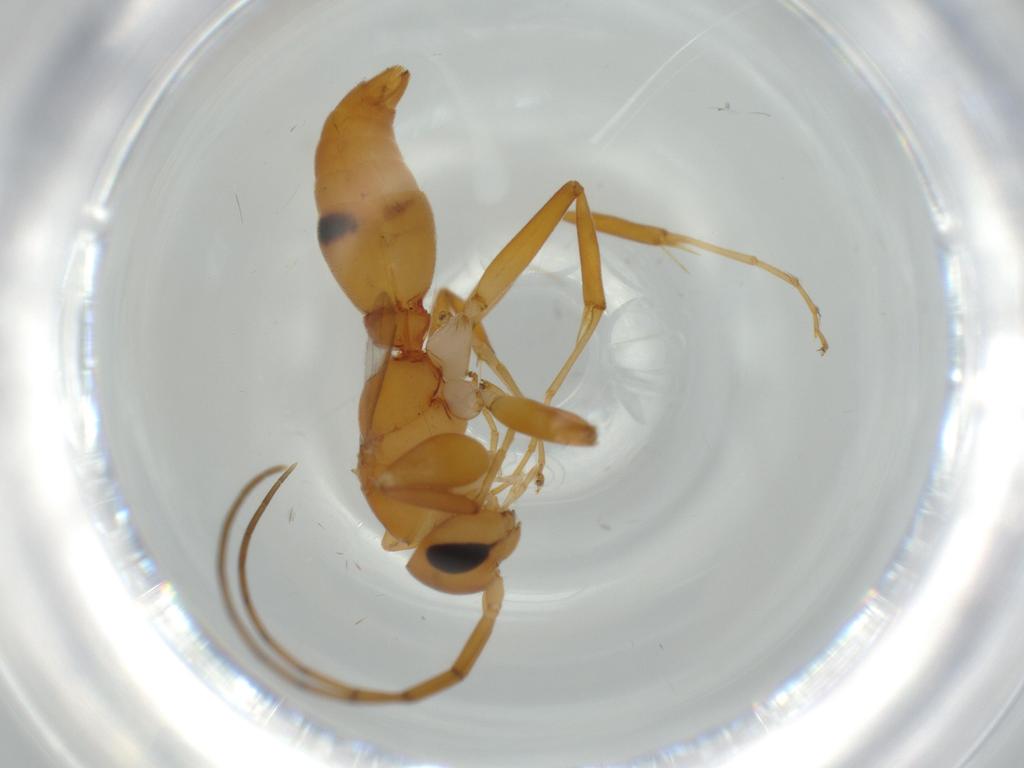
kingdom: Animalia
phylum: Arthropoda
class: Insecta
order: Hymenoptera
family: Rhopalosomatidae
